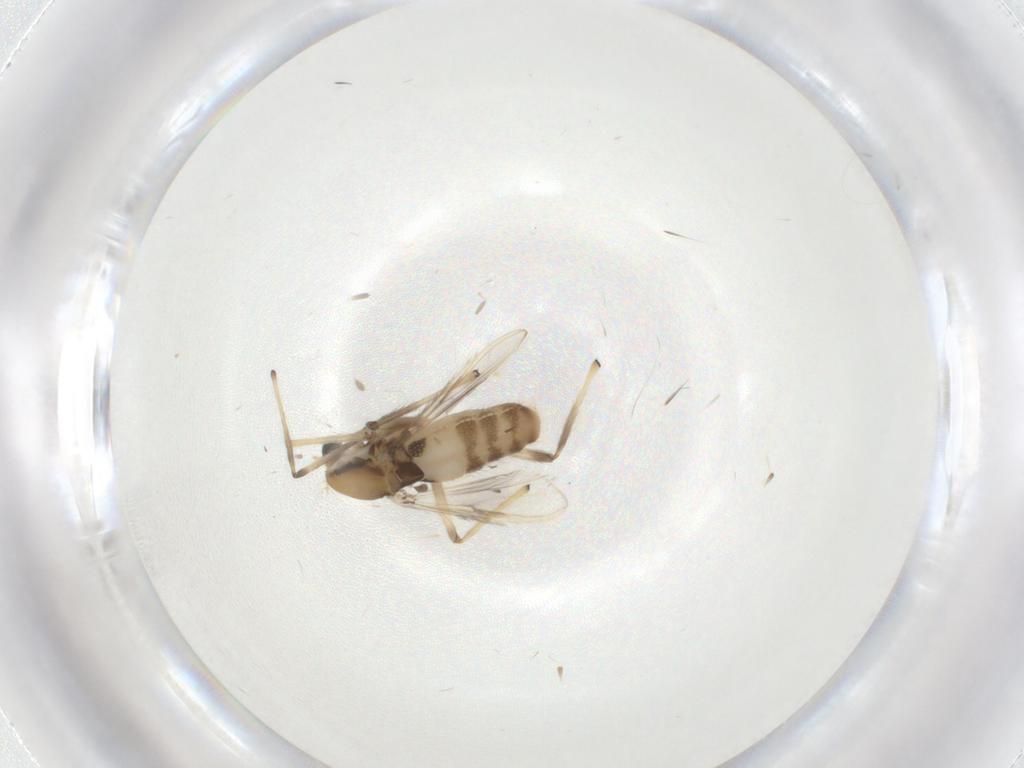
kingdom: Animalia
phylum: Arthropoda
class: Insecta
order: Diptera
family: Chironomidae
